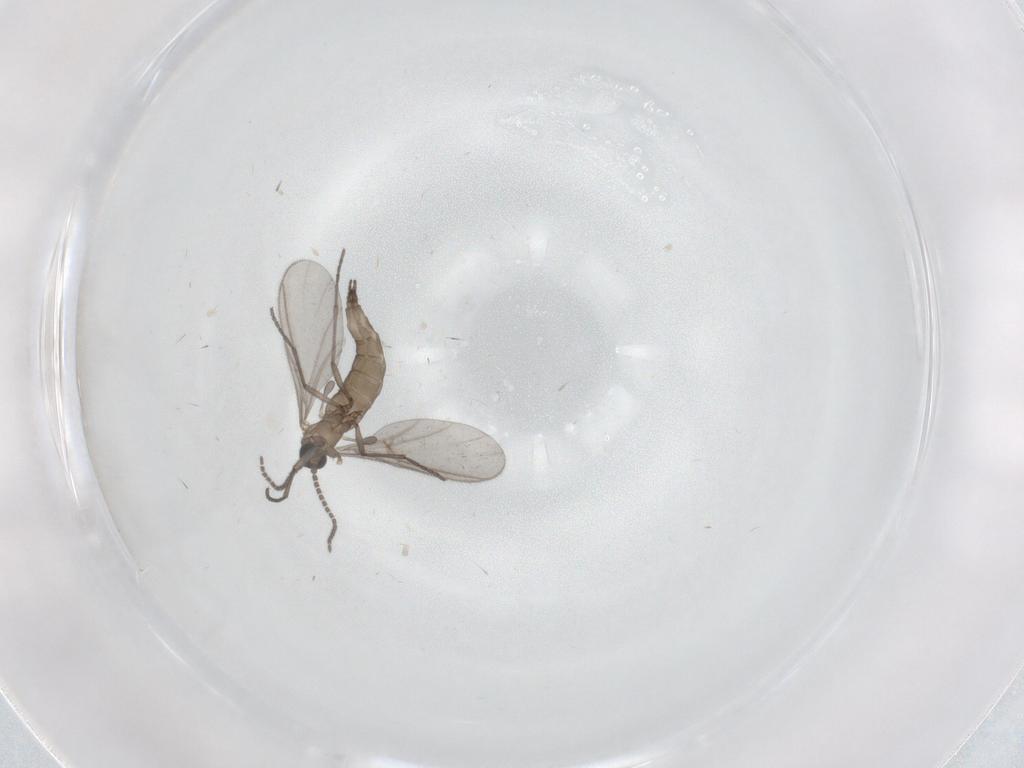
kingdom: Animalia
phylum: Arthropoda
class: Insecta
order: Diptera
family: Sciaridae
